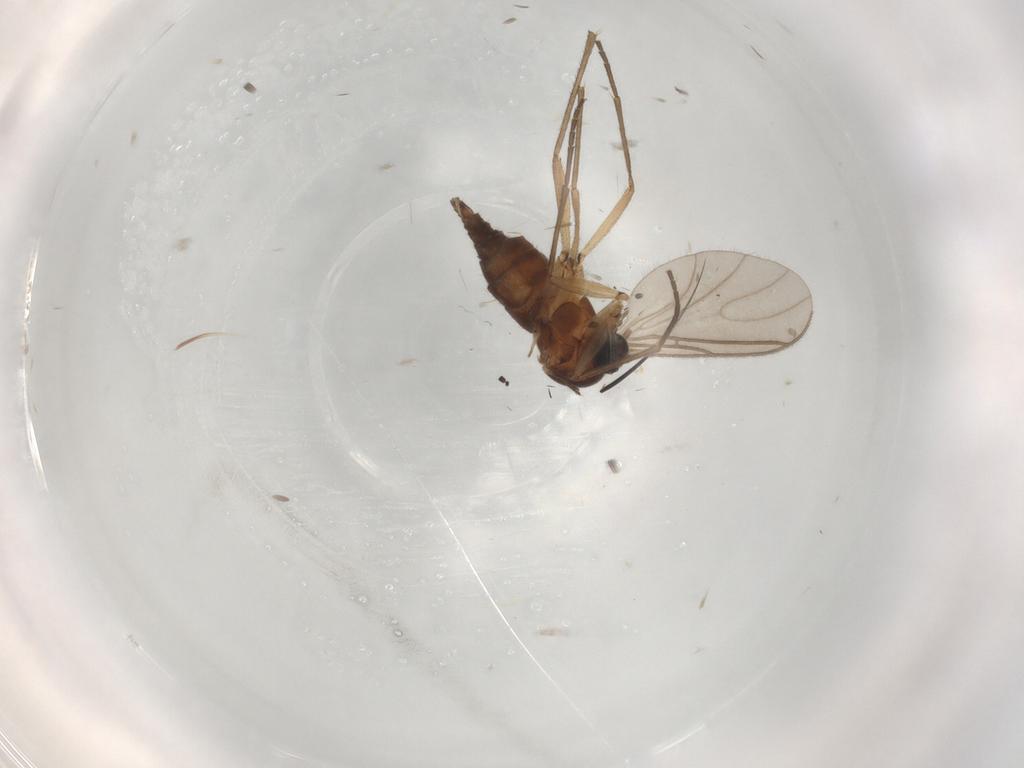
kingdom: Animalia
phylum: Arthropoda
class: Insecta
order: Diptera
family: Sciaridae
